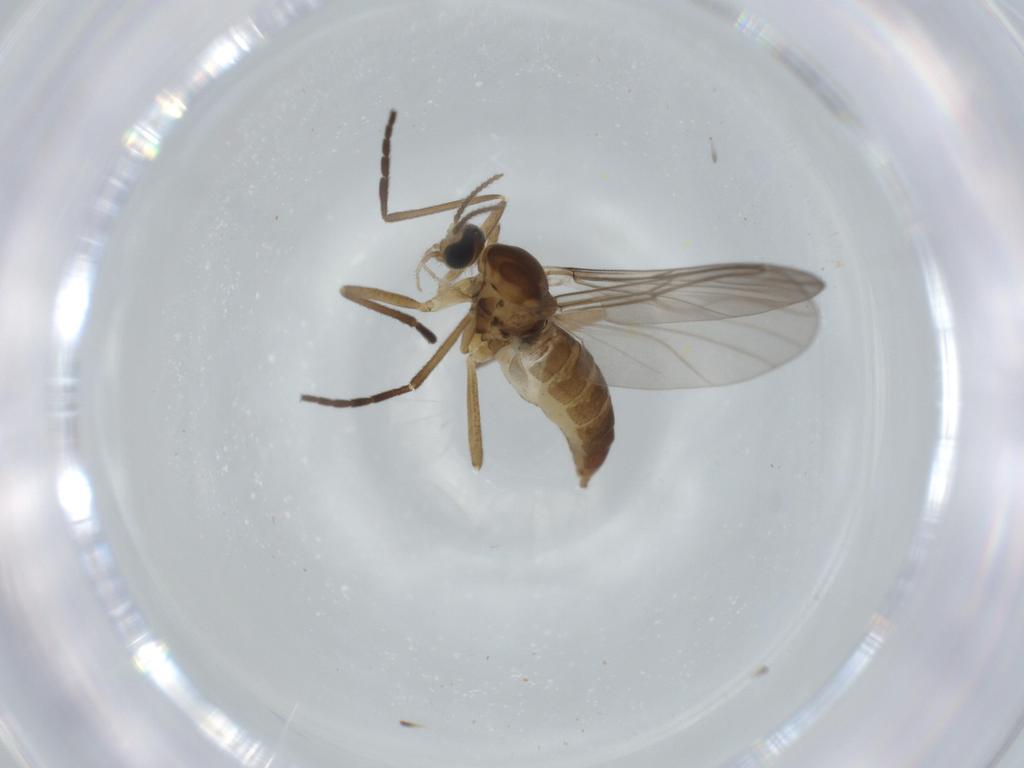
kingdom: Animalia
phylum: Arthropoda
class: Insecta
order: Diptera
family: Cecidomyiidae
